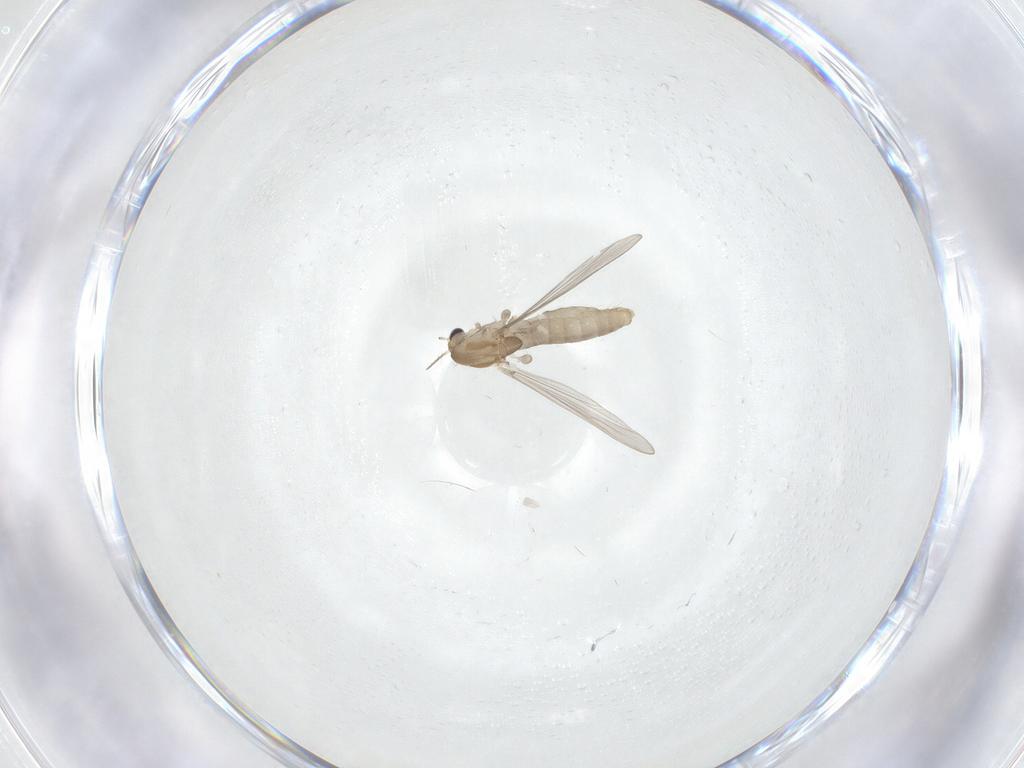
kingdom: Animalia
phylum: Arthropoda
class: Insecta
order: Diptera
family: Chironomidae
